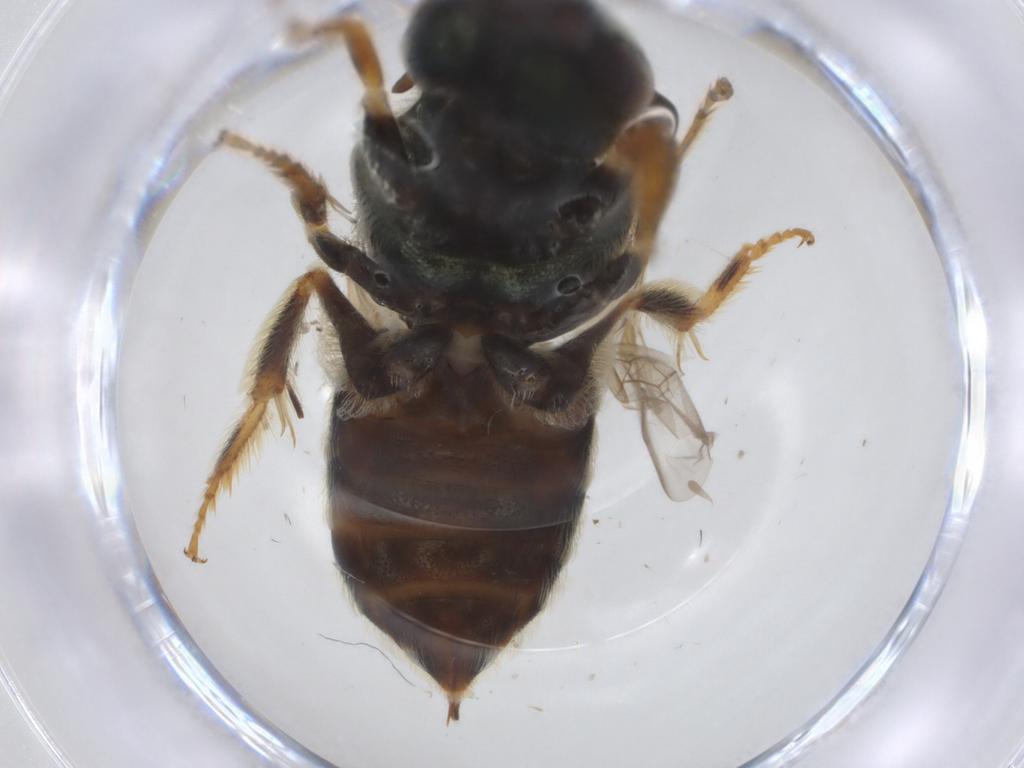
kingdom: Animalia
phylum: Arthropoda
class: Insecta
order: Hymenoptera
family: Halictidae
